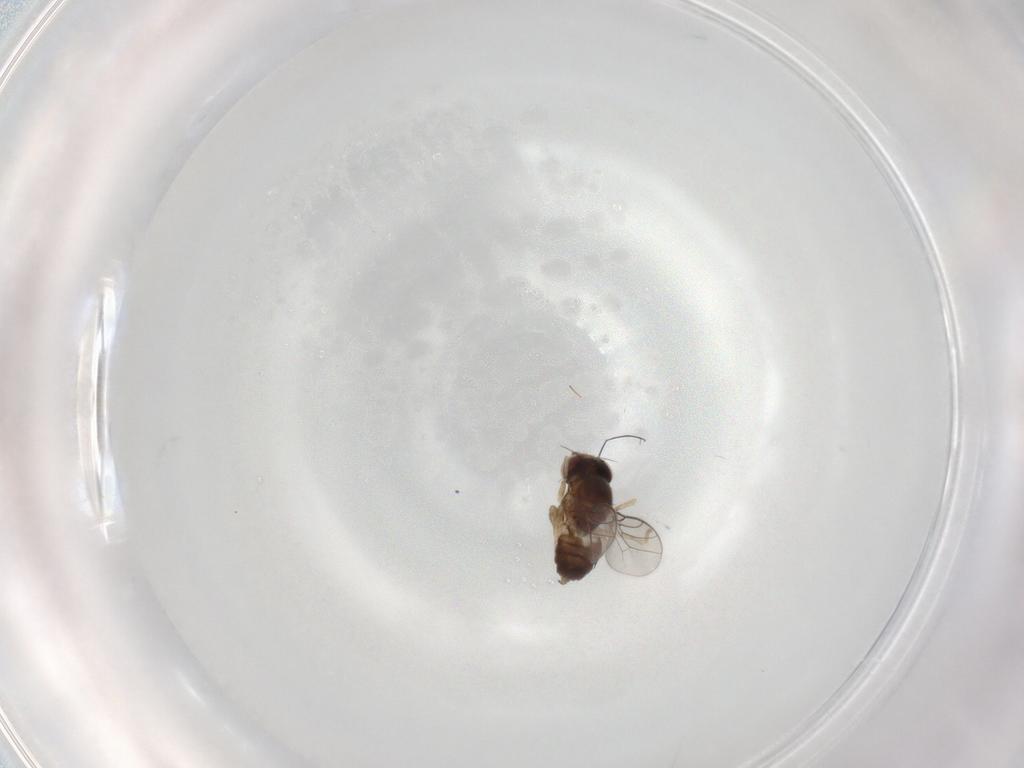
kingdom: Animalia
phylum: Arthropoda
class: Insecta
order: Diptera
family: Chloropidae
